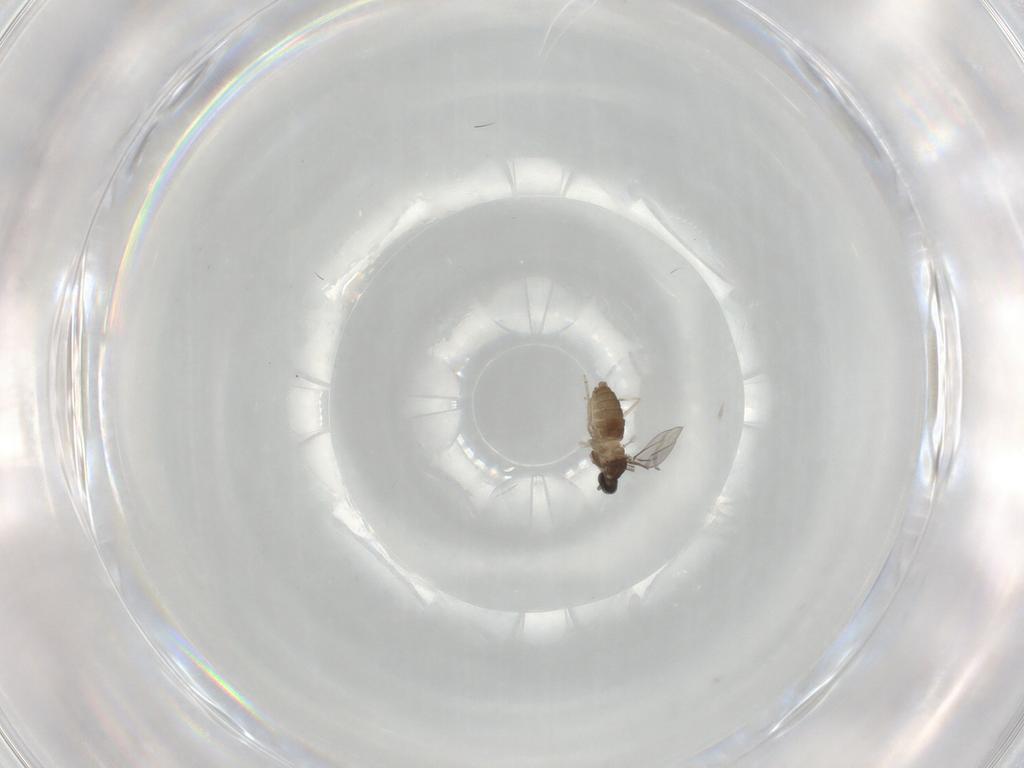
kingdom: Animalia
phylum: Arthropoda
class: Insecta
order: Diptera
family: Cecidomyiidae
